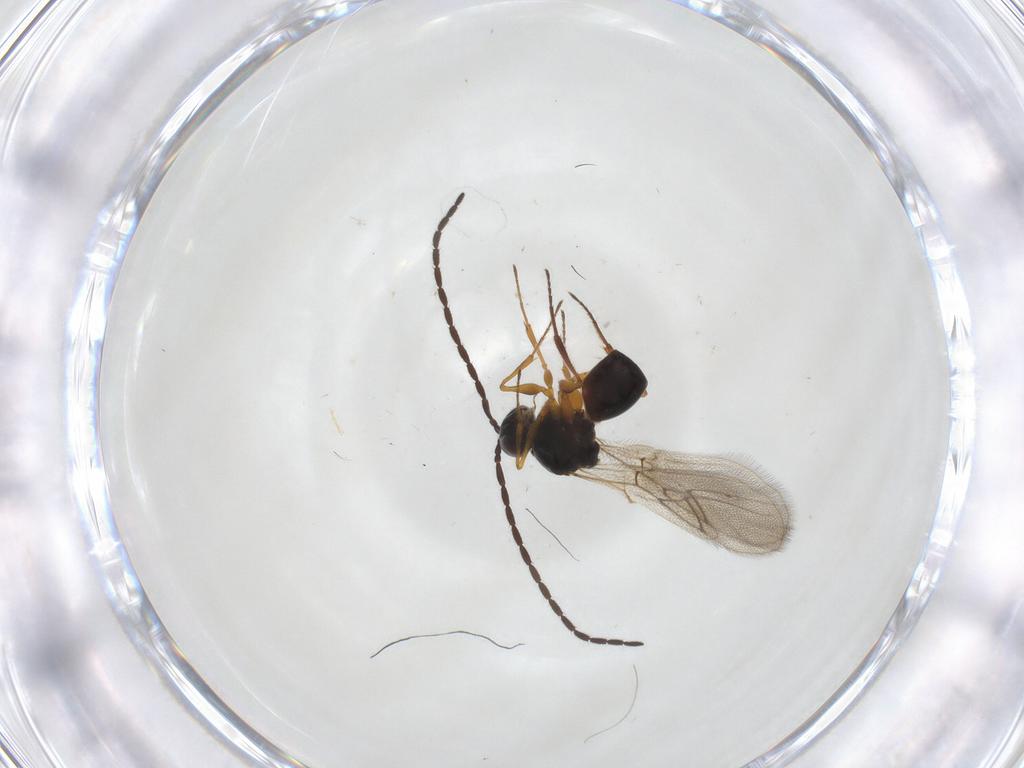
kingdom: Animalia
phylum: Arthropoda
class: Insecta
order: Hymenoptera
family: Figitidae
